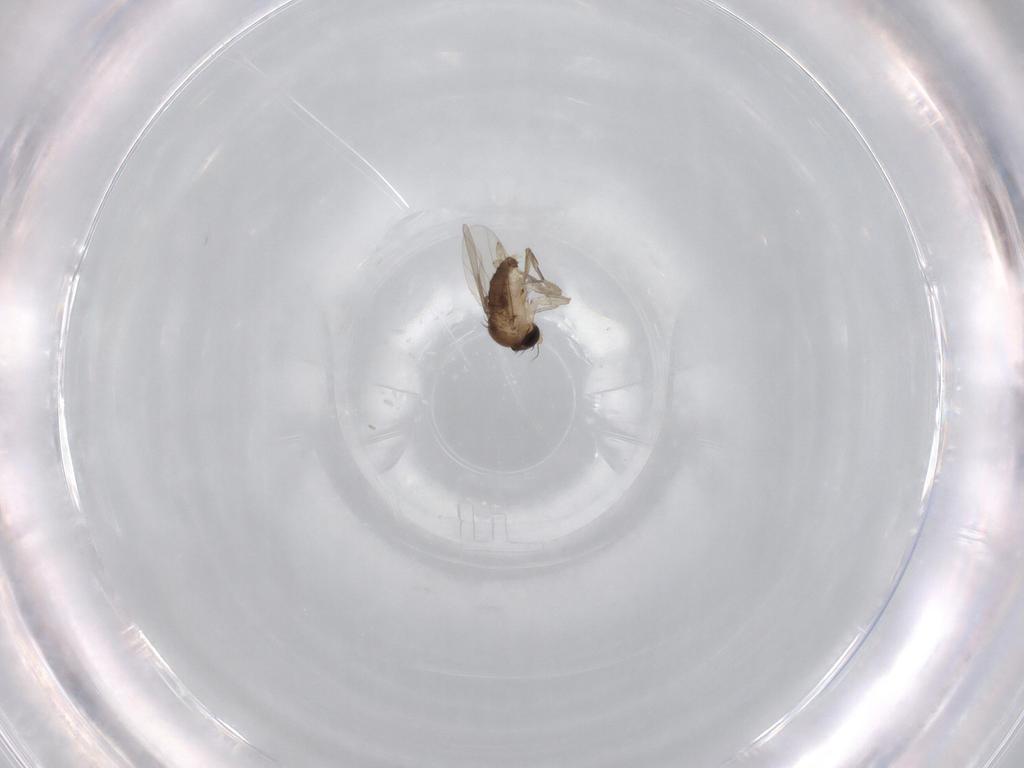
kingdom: Animalia
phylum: Arthropoda
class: Insecta
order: Diptera
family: Phoridae
